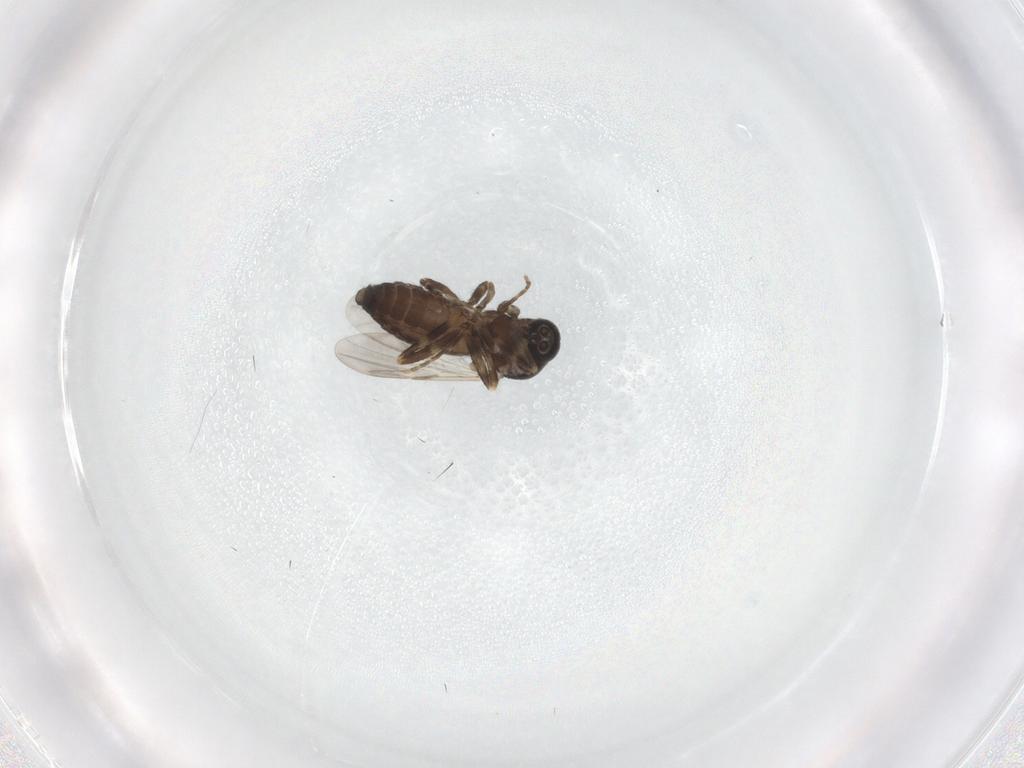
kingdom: Animalia
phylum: Arthropoda
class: Insecta
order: Diptera
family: Ceratopogonidae
